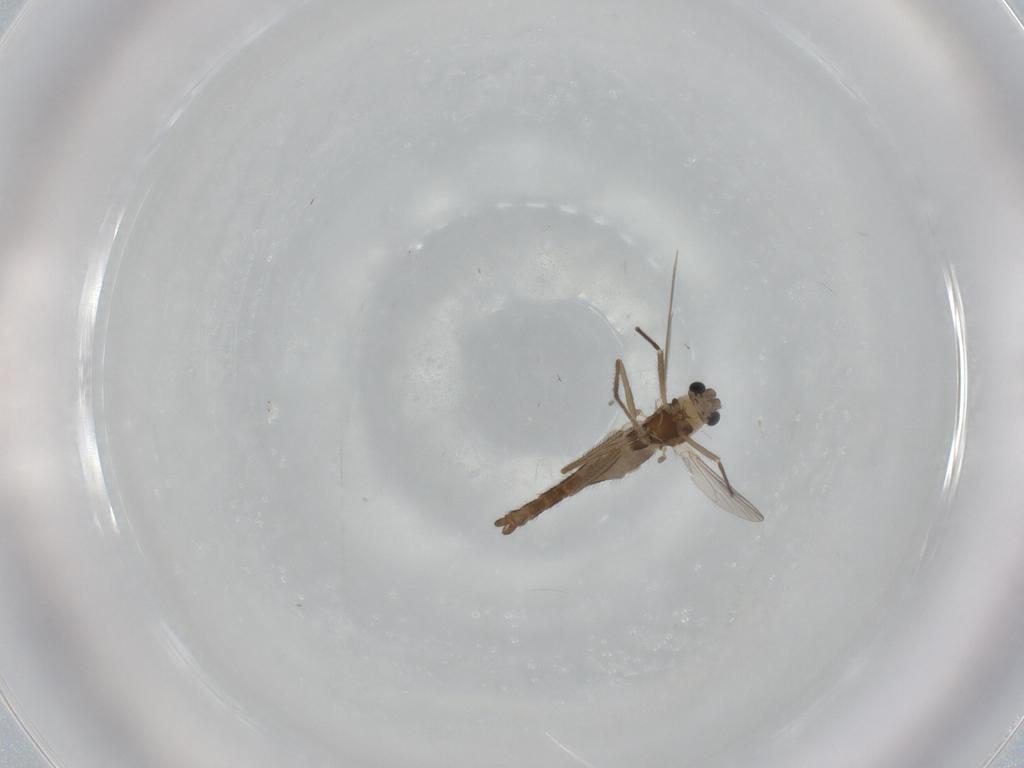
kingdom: Animalia
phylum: Arthropoda
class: Insecta
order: Diptera
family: Chironomidae
